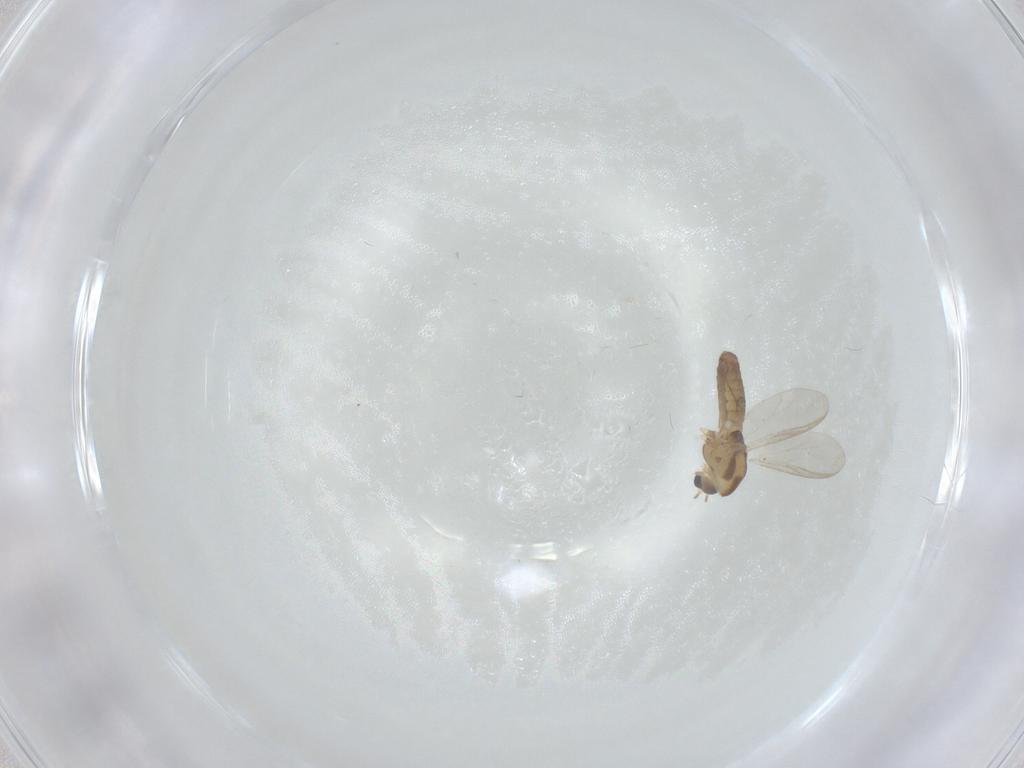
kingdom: Animalia
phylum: Arthropoda
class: Insecta
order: Diptera
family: Chironomidae
